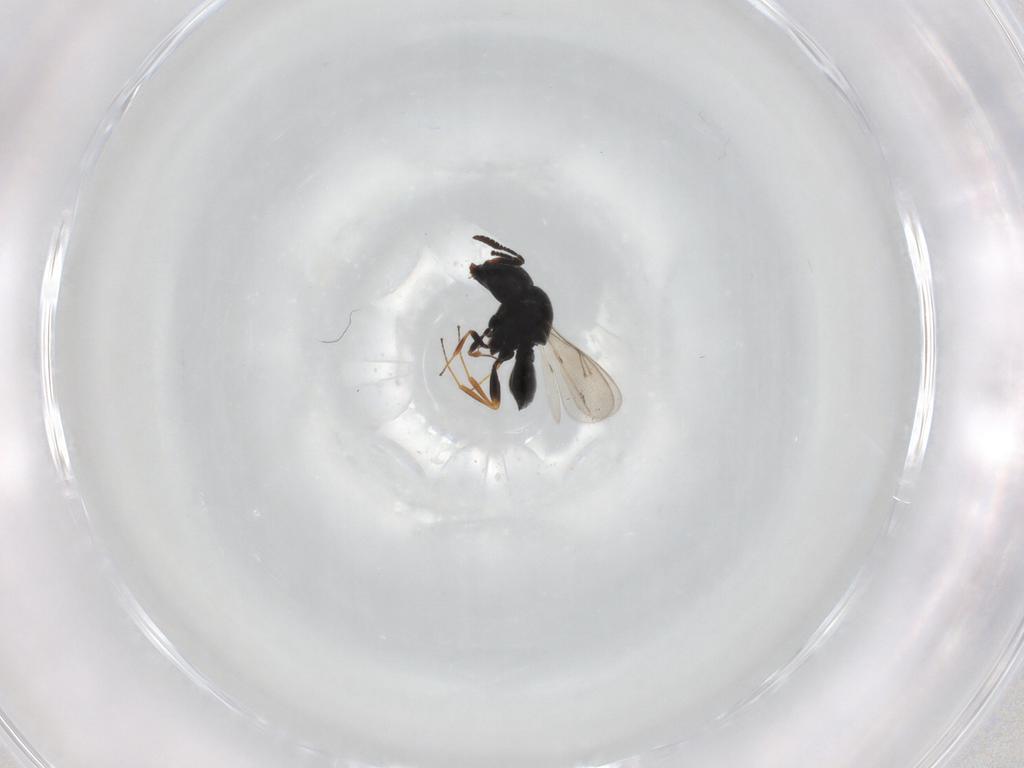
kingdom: Animalia
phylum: Arthropoda
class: Insecta
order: Hymenoptera
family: Scelionidae
